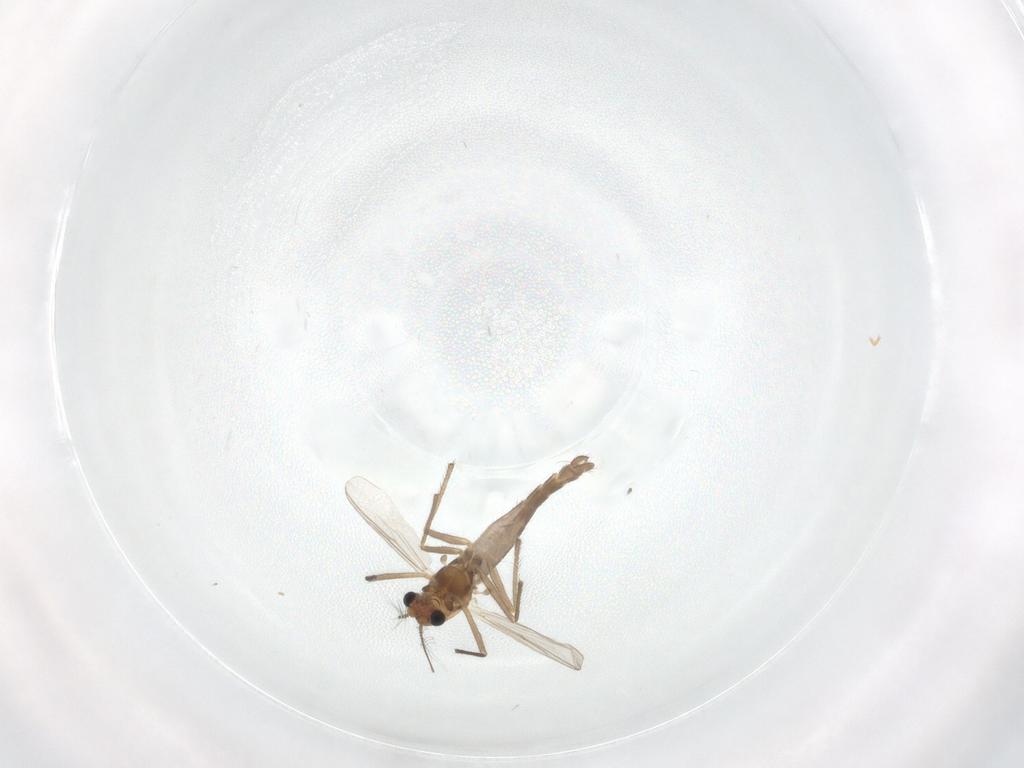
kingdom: Animalia
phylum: Arthropoda
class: Insecta
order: Diptera
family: Chironomidae
